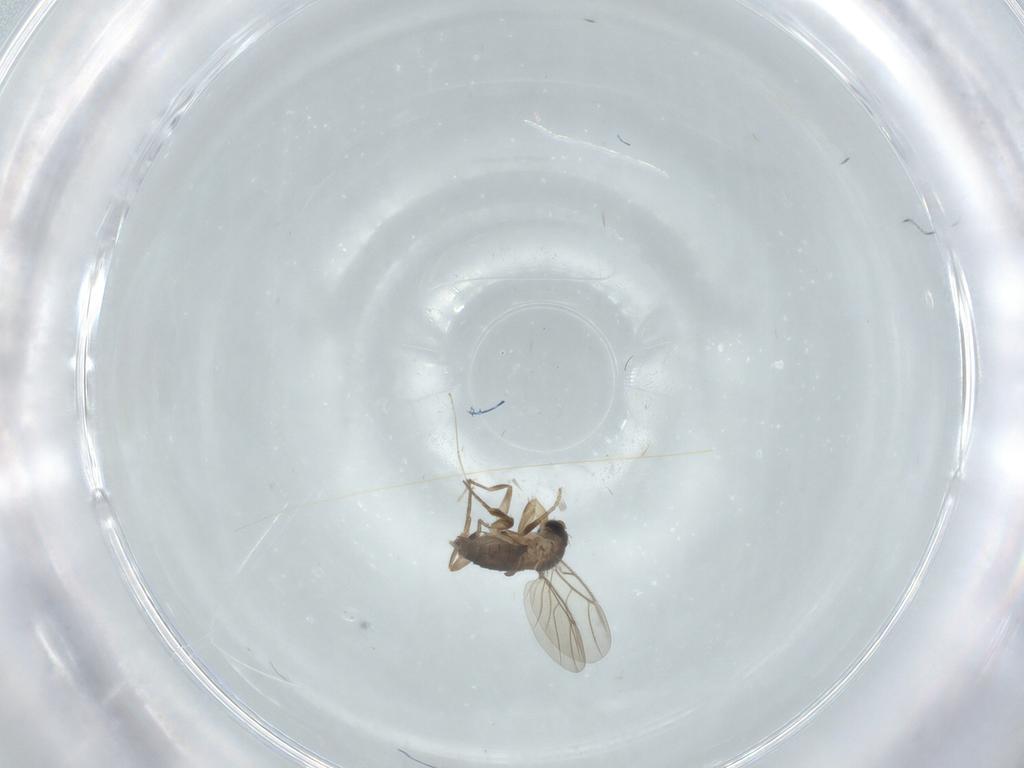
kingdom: Animalia
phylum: Arthropoda
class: Insecta
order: Diptera
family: Phoridae
